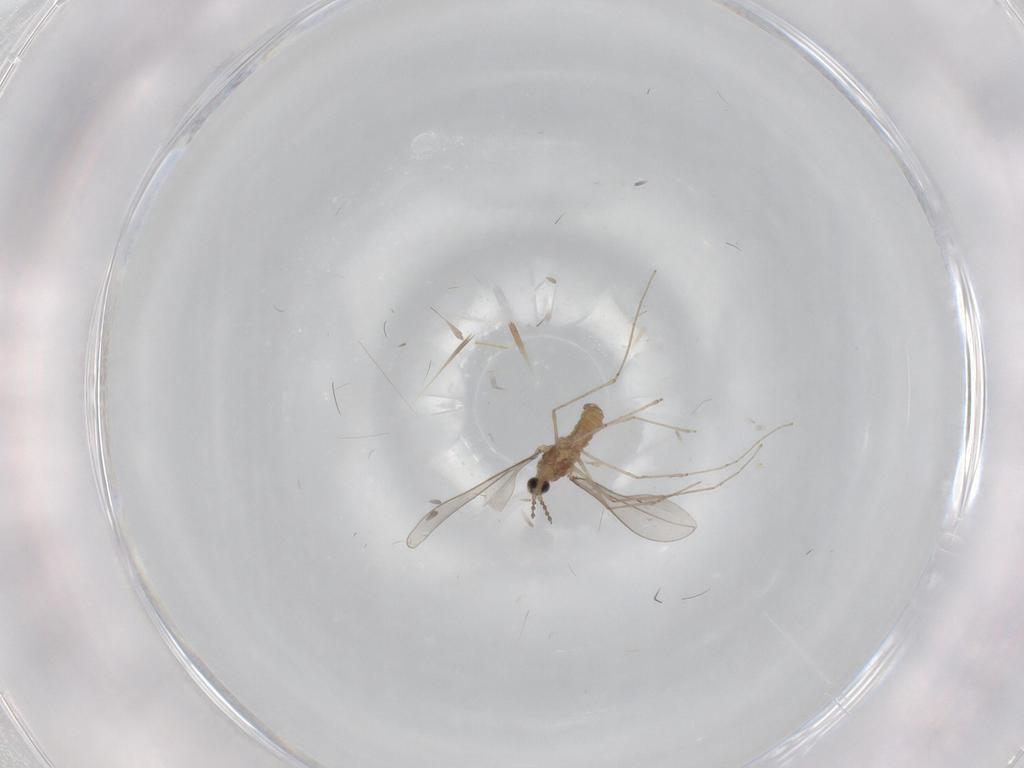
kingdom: Animalia
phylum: Arthropoda
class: Insecta
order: Diptera
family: Cecidomyiidae
